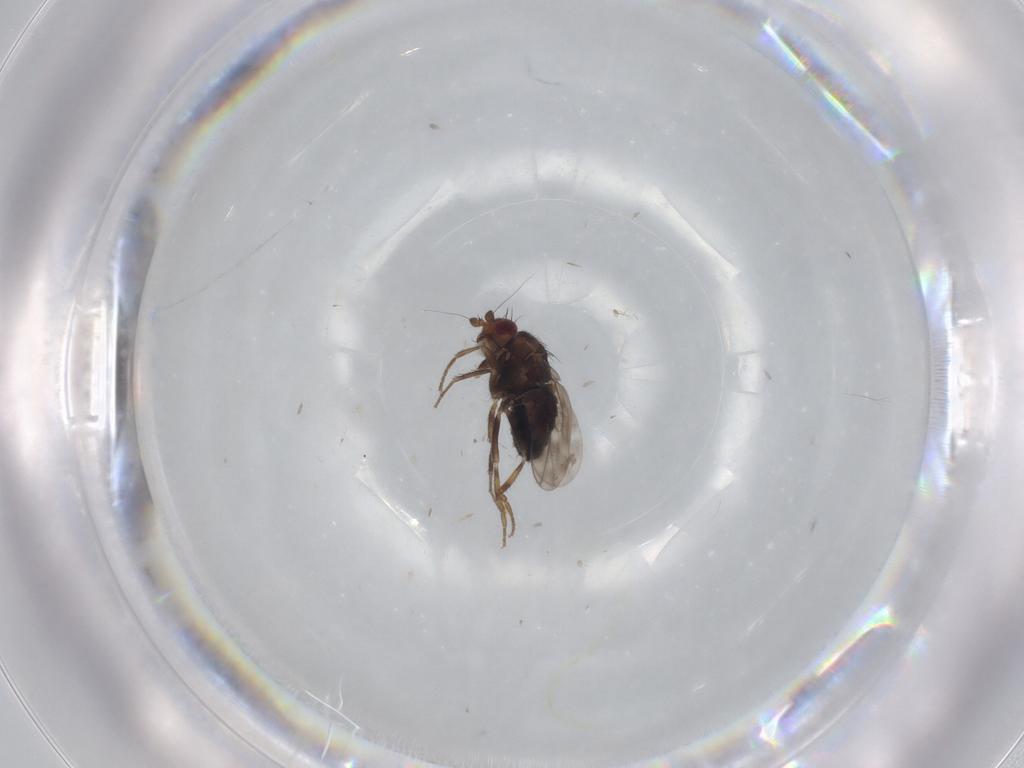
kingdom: Animalia
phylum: Arthropoda
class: Insecta
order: Diptera
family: Sphaeroceridae
